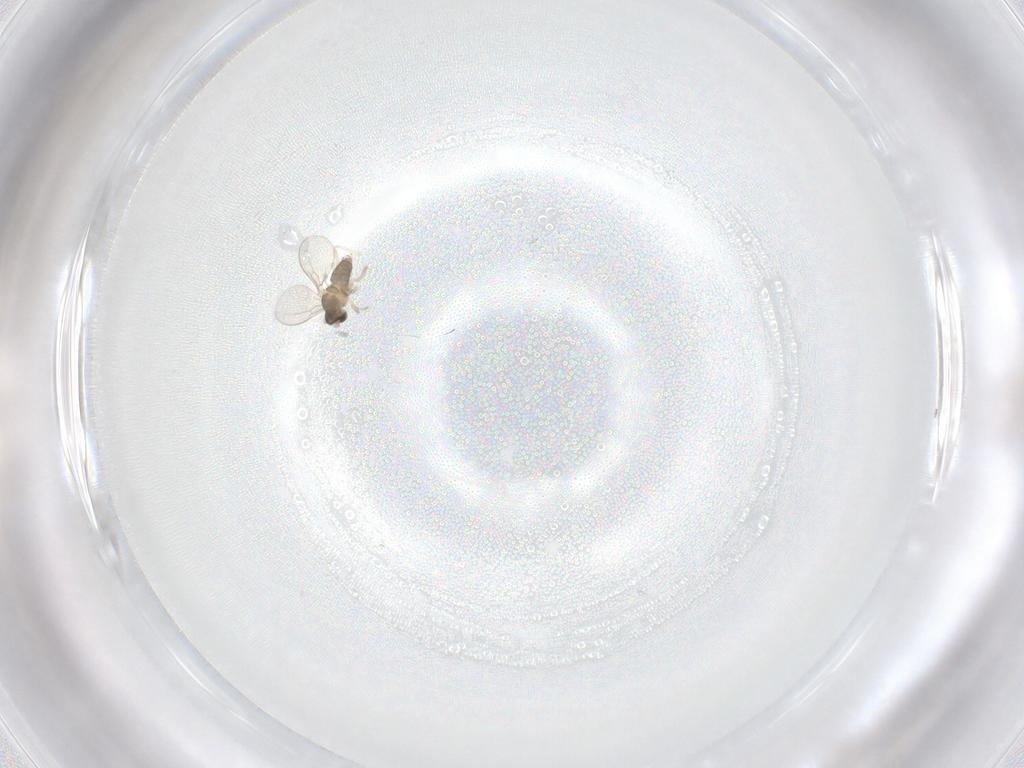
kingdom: Animalia
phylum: Arthropoda
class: Insecta
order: Diptera
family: Cecidomyiidae
